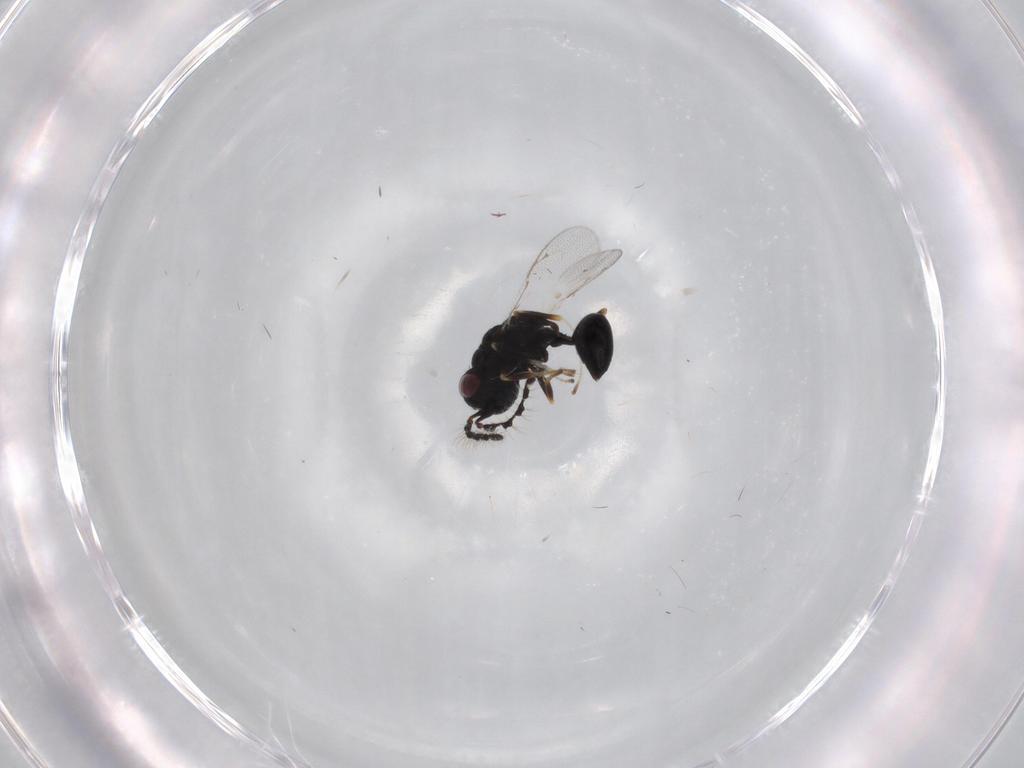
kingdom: Animalia
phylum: Arthropoda
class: Insecta
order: Hymenoptera
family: Eurytomidae
